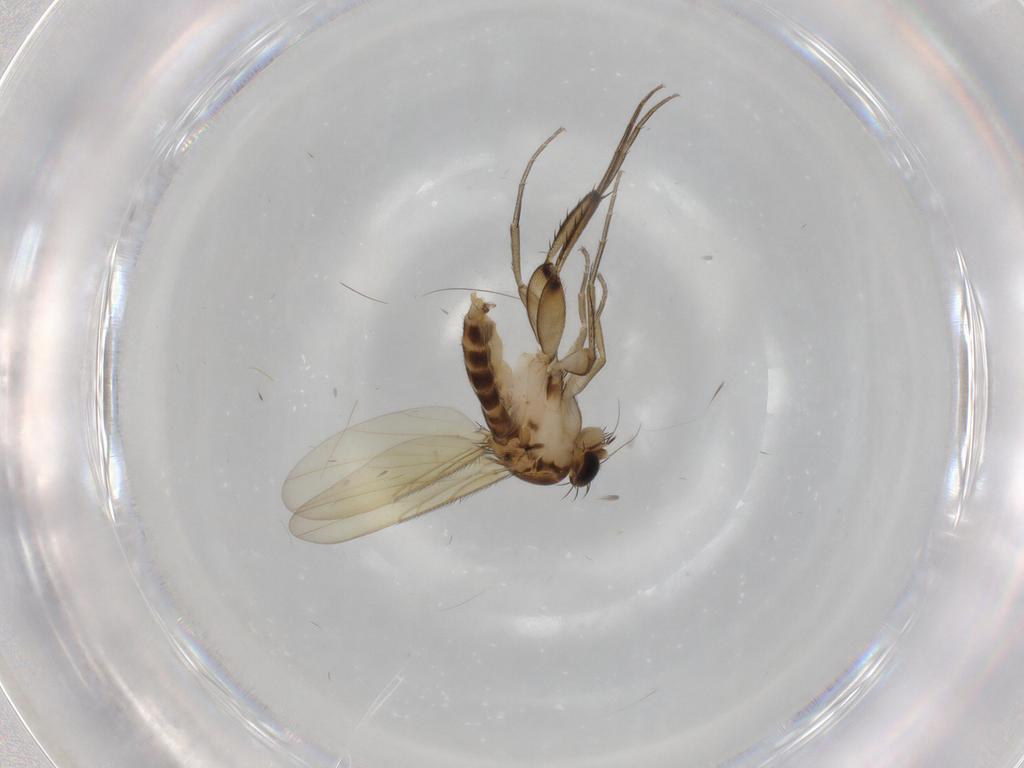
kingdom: Animalia
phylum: Arthropoda
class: Insecta
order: Diptera
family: Phoridae
